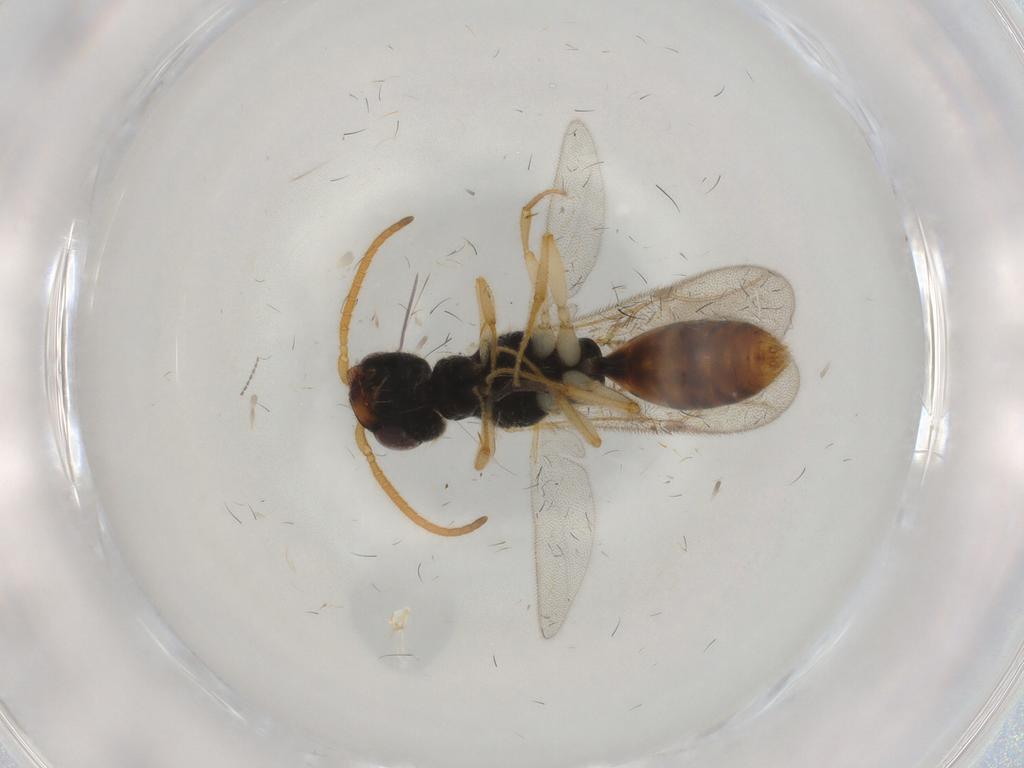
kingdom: Animalia
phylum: Arthropoda
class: Insecta
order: Hymenoptera
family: Bethylidae
